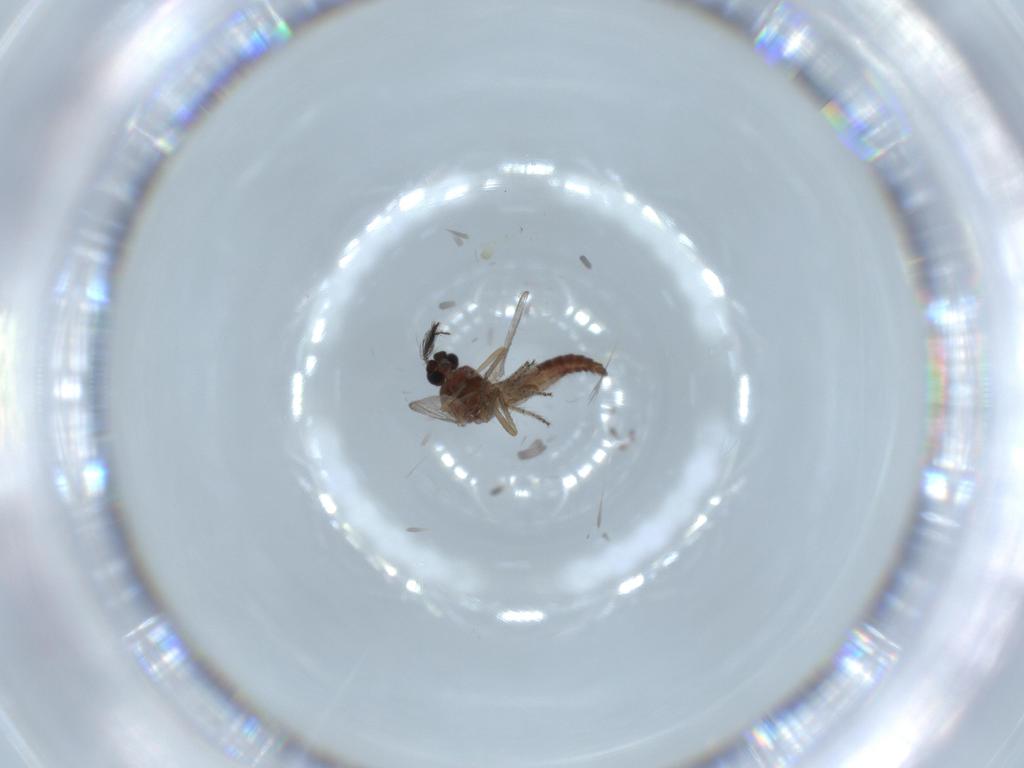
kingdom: Animalia
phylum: Arthropoda
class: Insecta
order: Diptera
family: Ceratopogonidae
